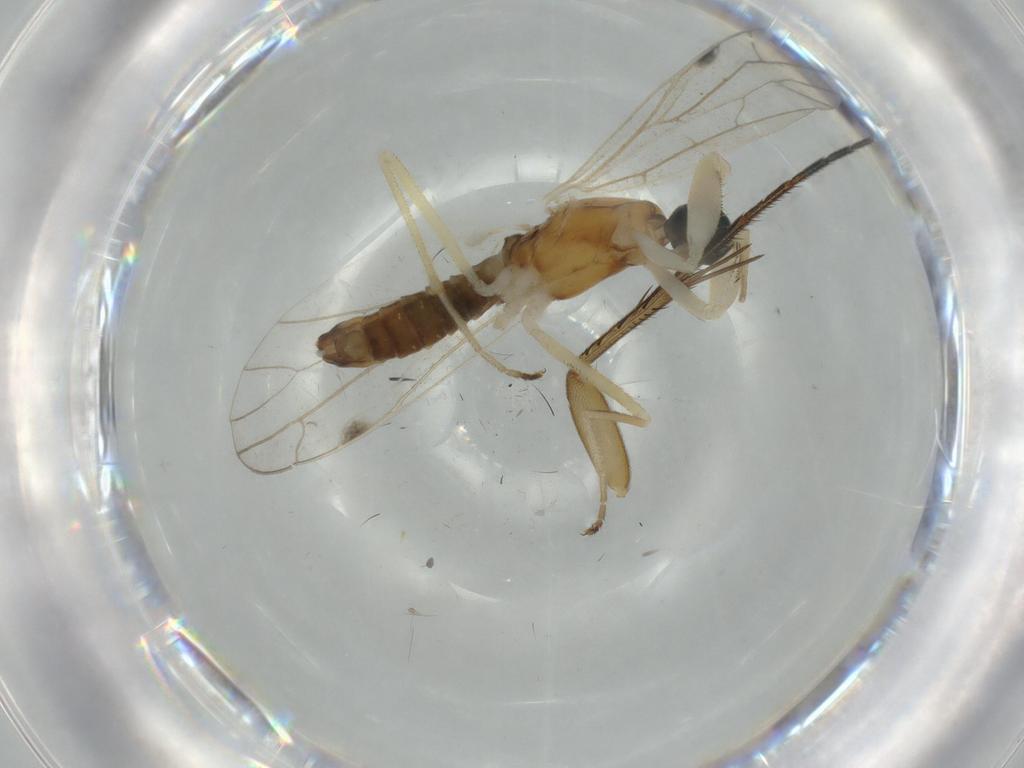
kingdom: Animalia
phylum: Arthropoda
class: Insecta
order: Diptera
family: Empididae
